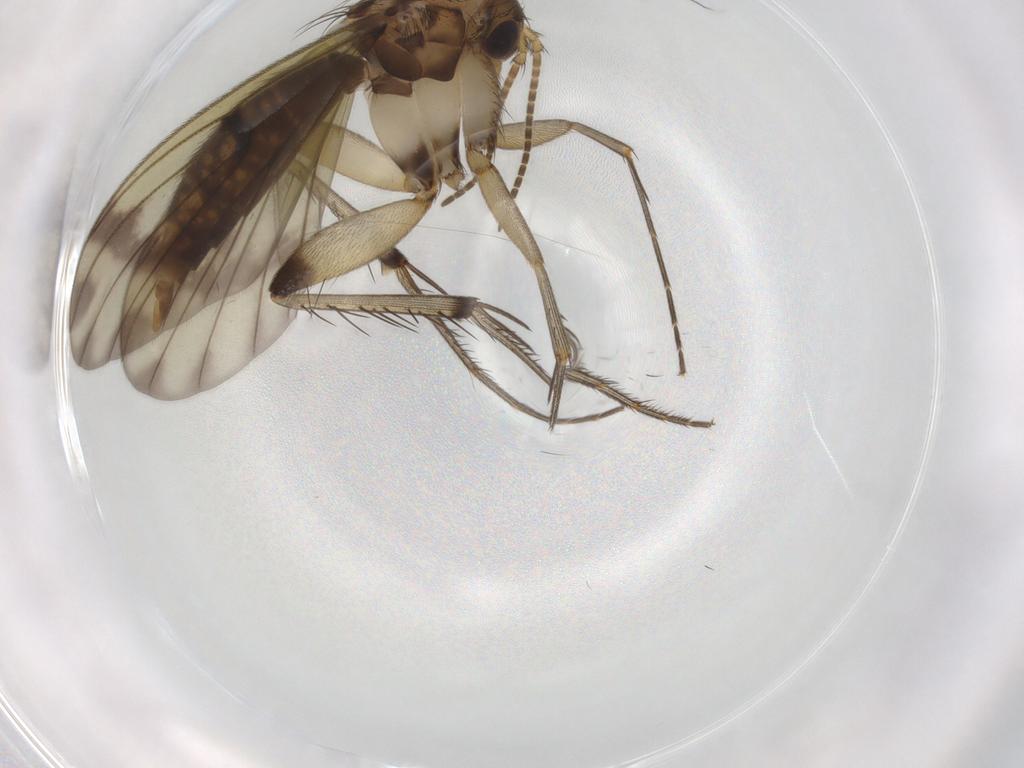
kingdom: Animalia
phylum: Arthropoda
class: Insecta
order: Diptera
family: Mycetophilidae
